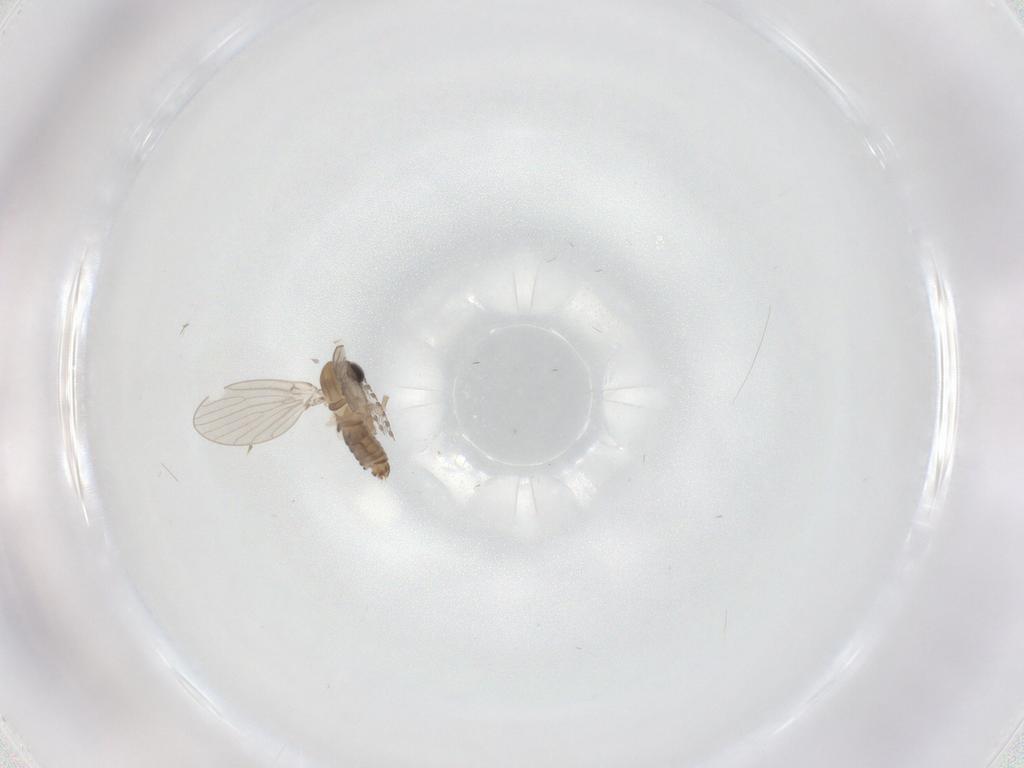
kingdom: Animalia
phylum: Arthropoda
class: Insecta
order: Diptera
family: Psychodidae
